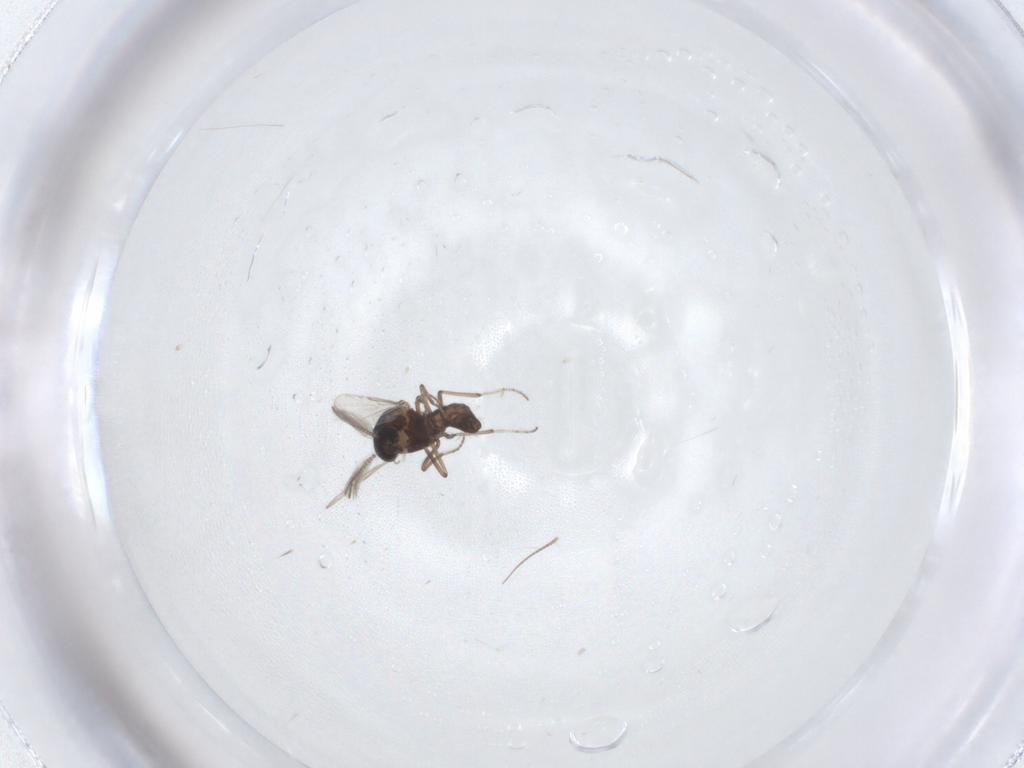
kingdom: Animalia
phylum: Arthropoda
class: Insecta
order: Diptera
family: Ceratopogonidae
